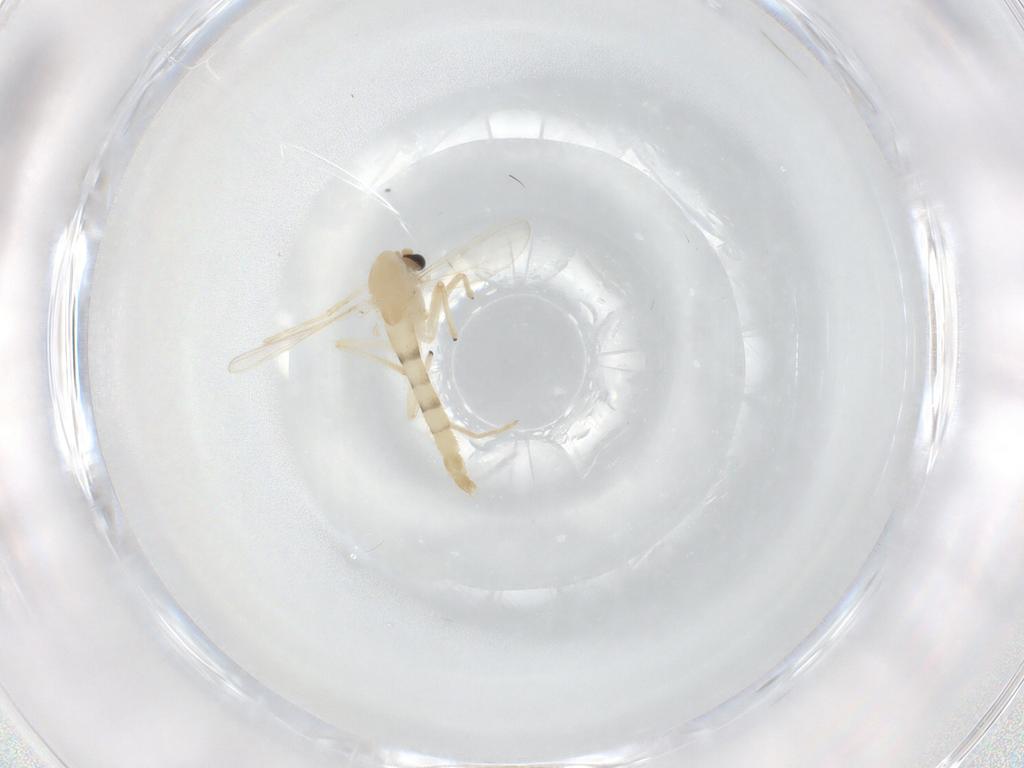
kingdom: Animalia
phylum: Arthropoda
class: Insecta
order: Diptera
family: Chironomidae
